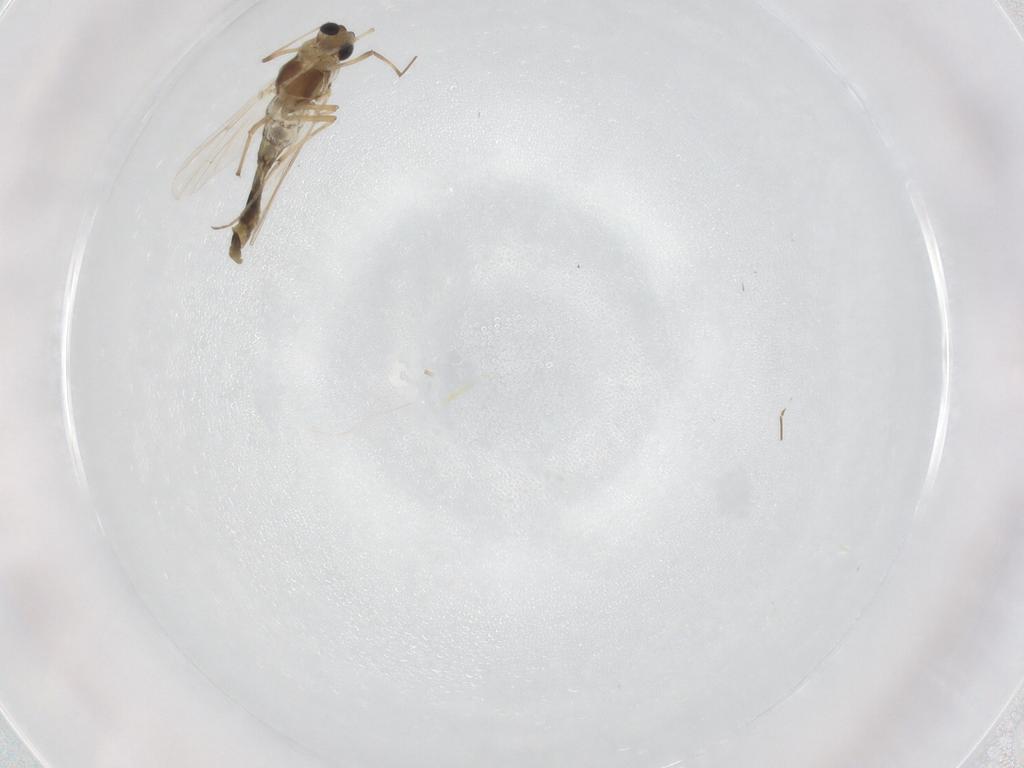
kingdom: Animalia
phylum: Arthropoda
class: Insecta
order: Diptera
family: Chironomidae
